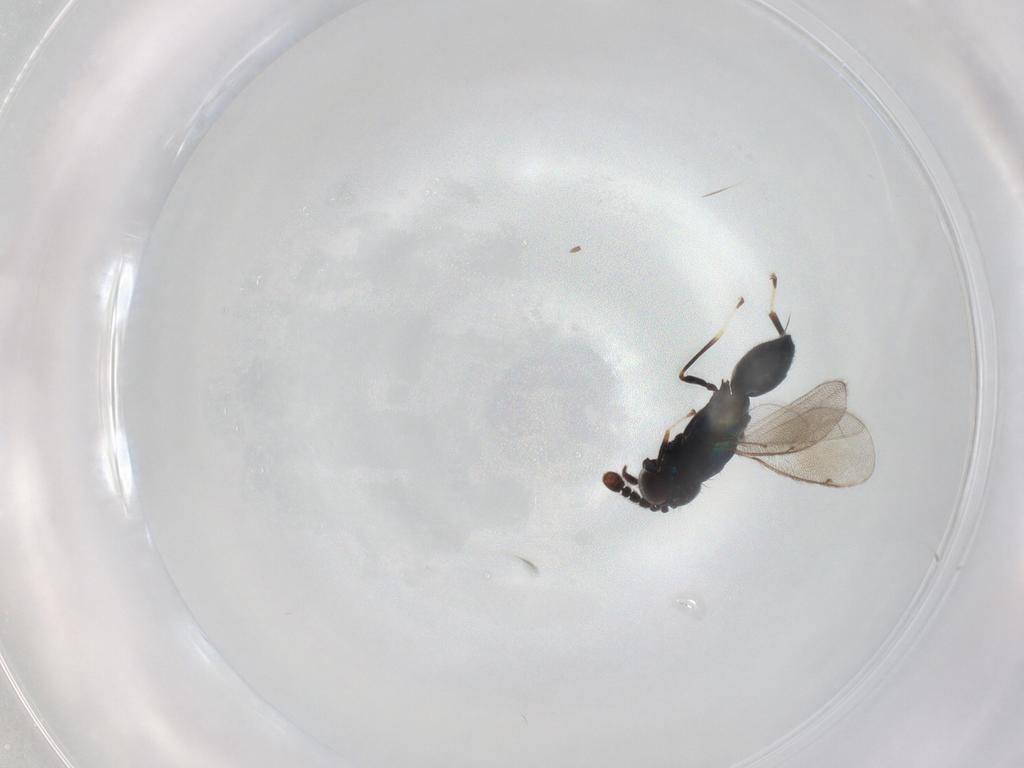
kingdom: Animalia
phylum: Arthropoda
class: Insecta
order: Hymenoptera
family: Eulophidae
